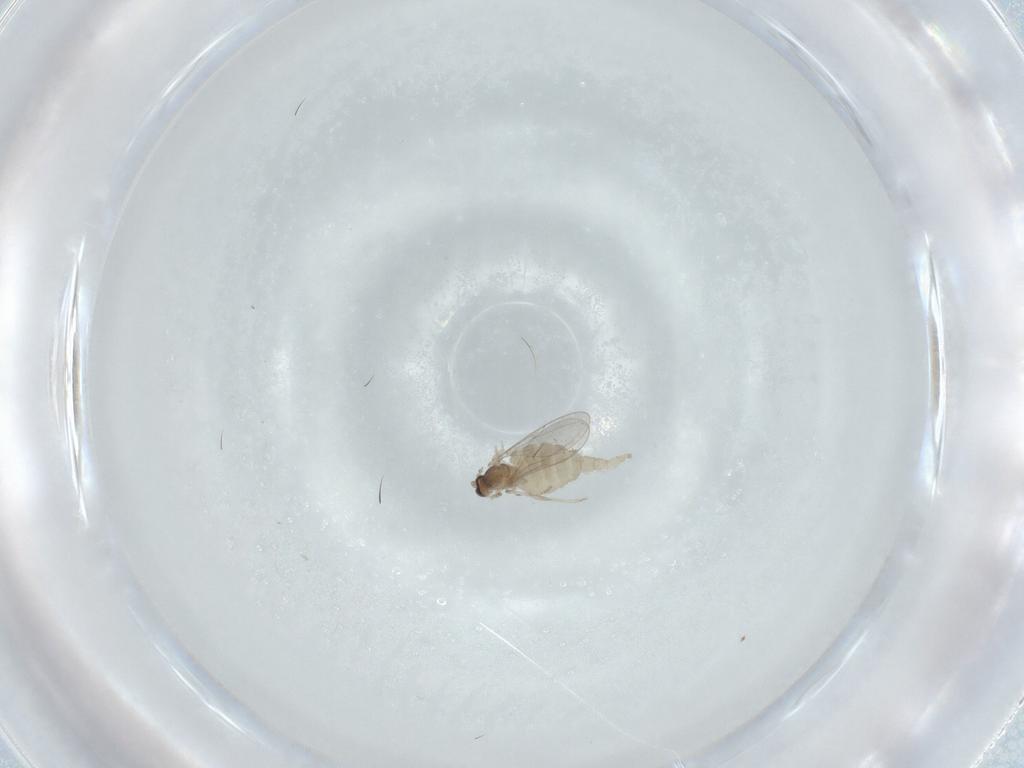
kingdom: Animalia
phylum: Arthropoda
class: Insecta
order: Diptera
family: Cecidomyiidae
